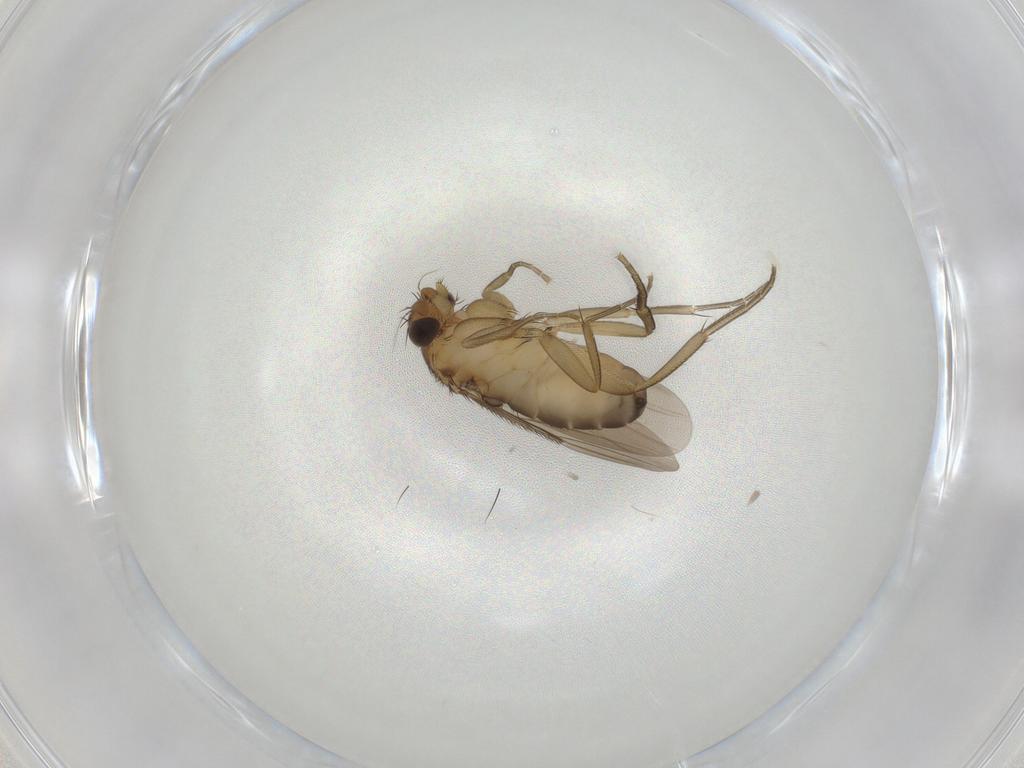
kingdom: Animalia
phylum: Arthropoda
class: Insecta
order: Diptera
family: Phoridae
